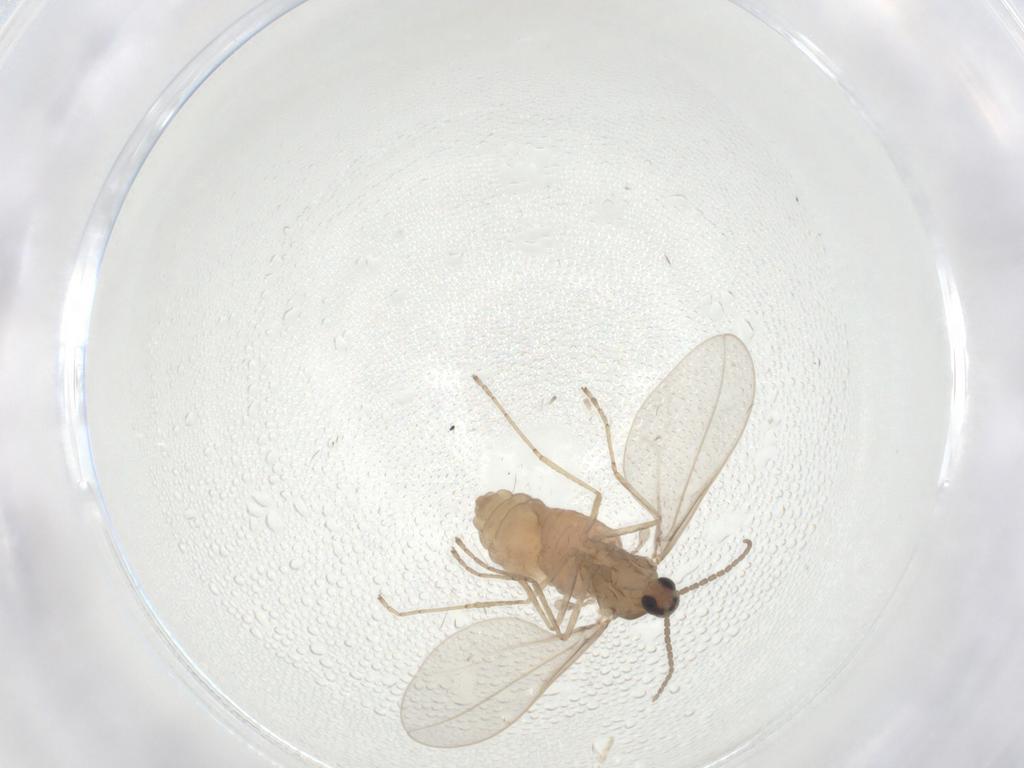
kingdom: Animalia
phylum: Arthropoda
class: Insecta
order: Diptera
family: Cecidomyiidae
